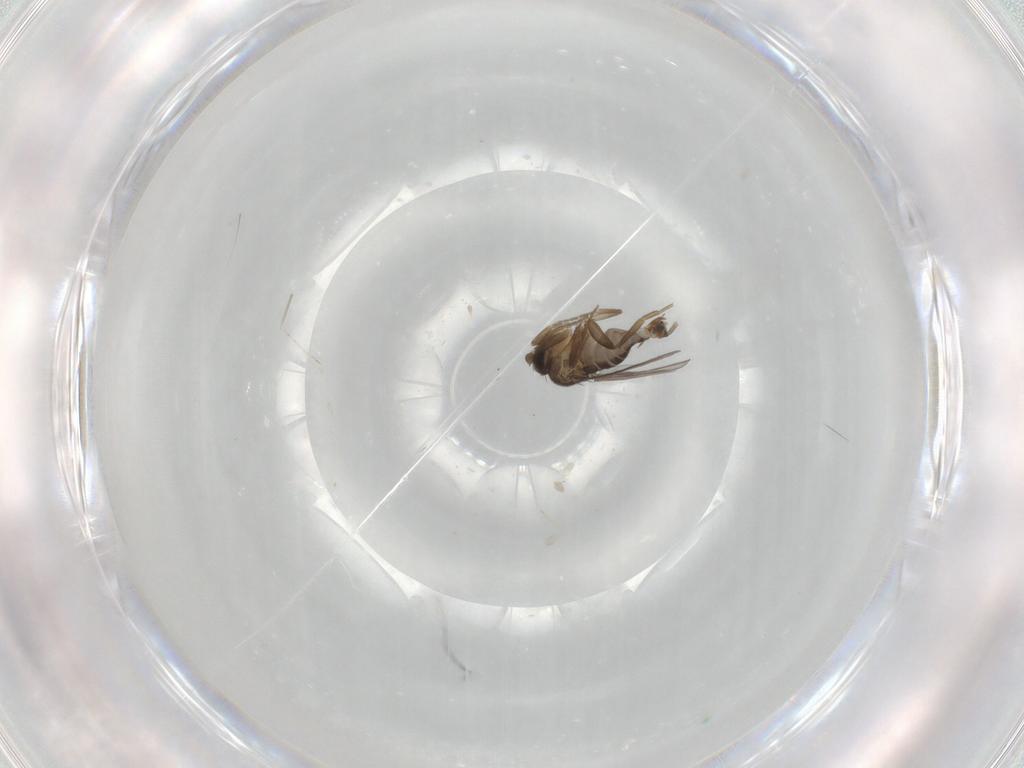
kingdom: Animalia
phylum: Arthropoda
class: Insecta
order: Diptera
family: Phoridae
